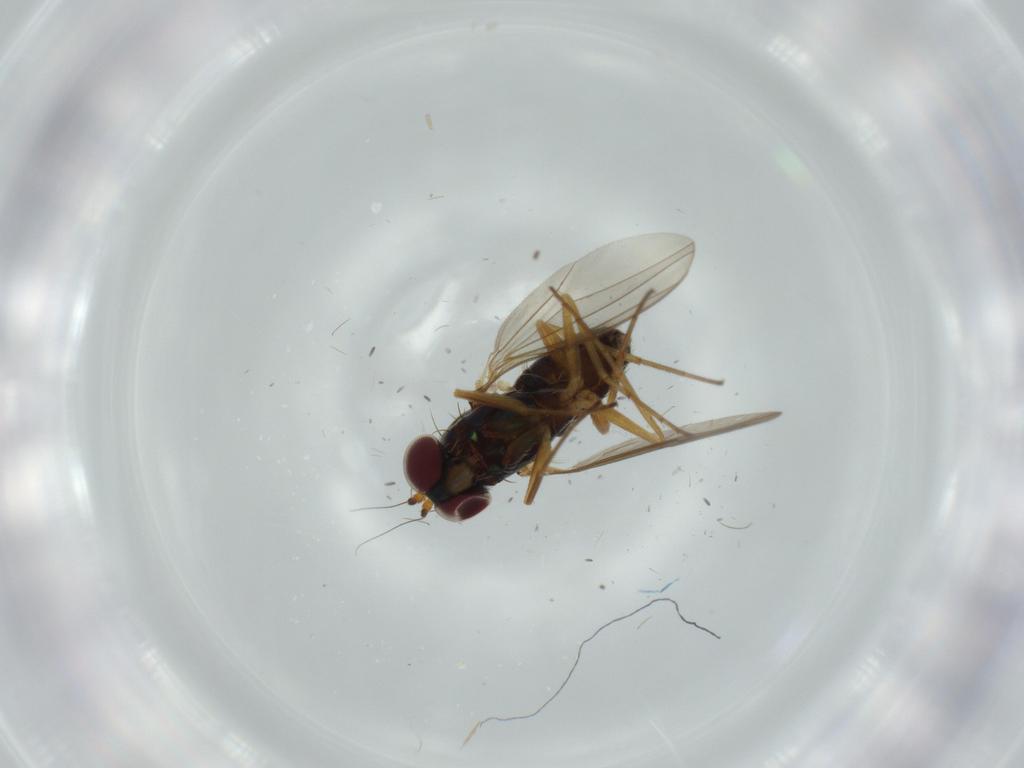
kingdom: Animalia
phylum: Arthropoda
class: Insecta
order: Diptera
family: Dolichopodidae
